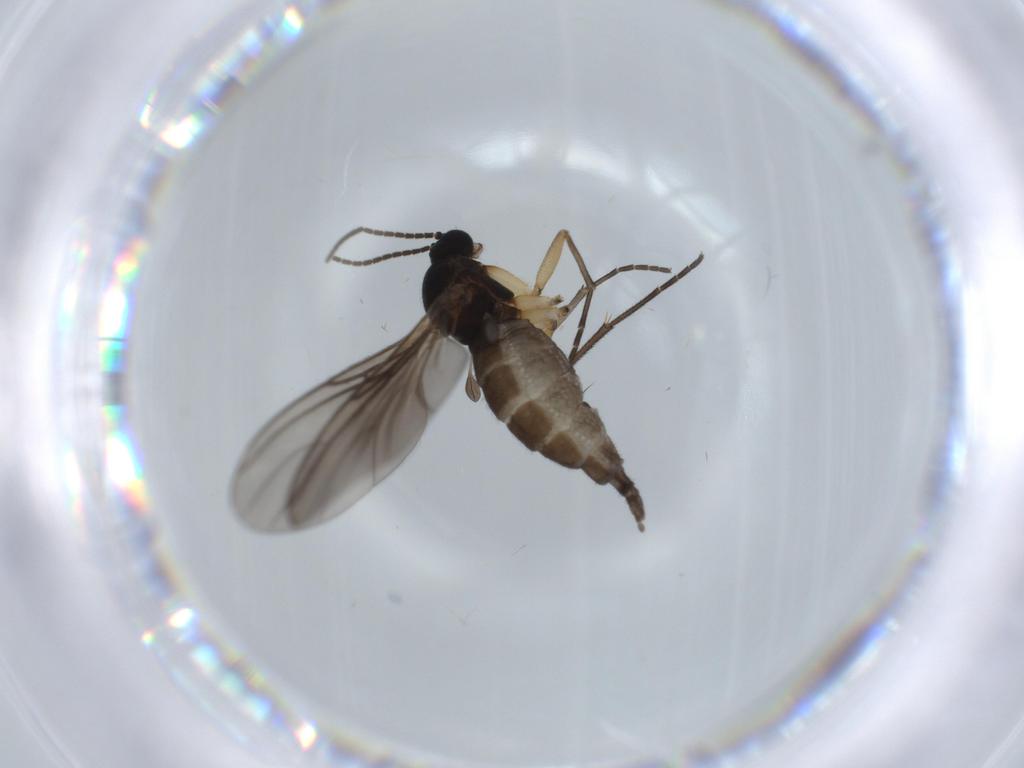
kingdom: Animalia
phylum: Arthropoda
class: Insecta
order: Diptera
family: Sciaridae
